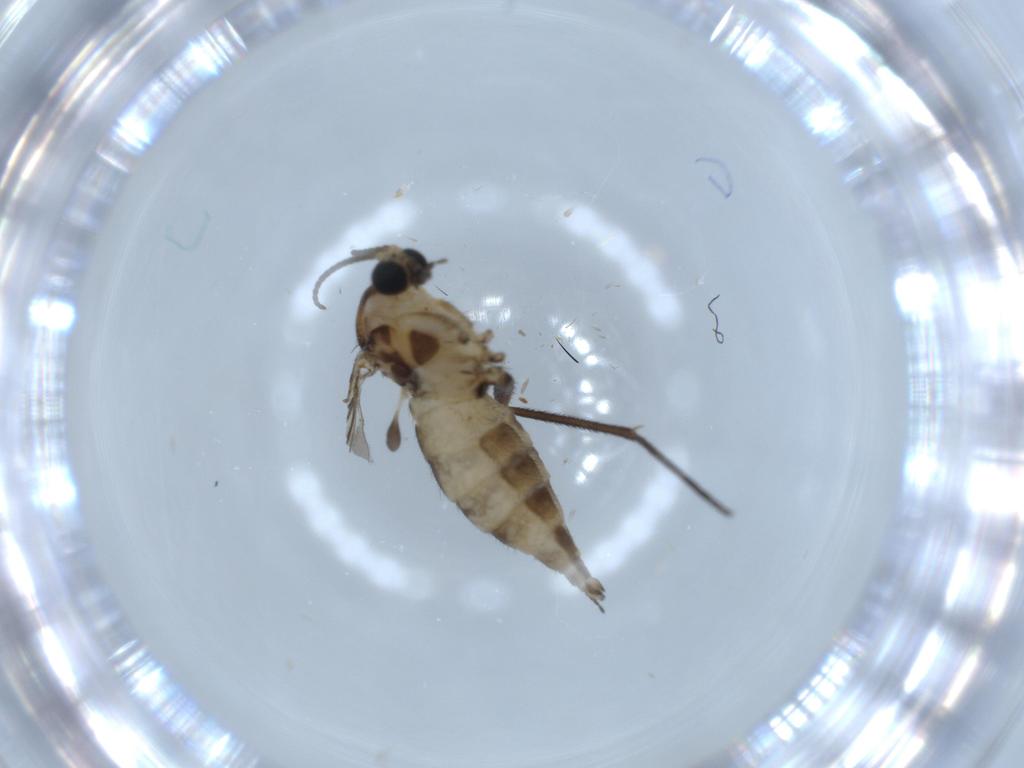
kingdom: Animalia
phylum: Arthropoda
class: Insecta
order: Diptera
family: Sciaridae
